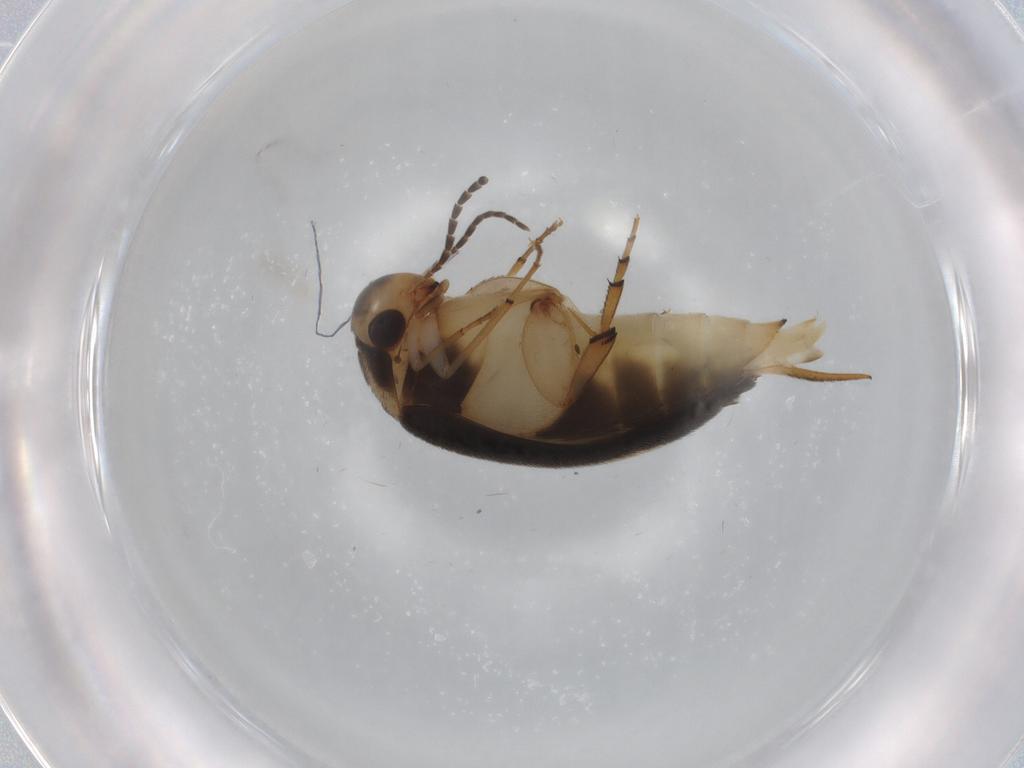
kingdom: Animalia
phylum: Arthropoda
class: Insecta
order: Coleoptera
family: Mordellidae
